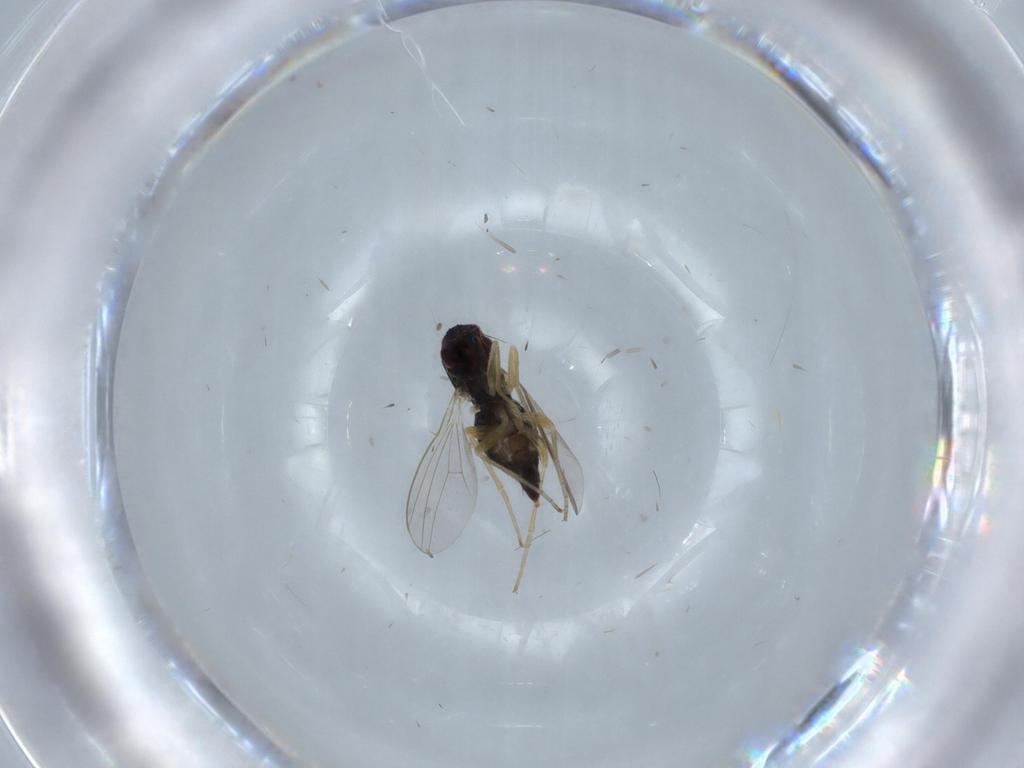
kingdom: Animalia
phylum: Arthropoda
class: Insecta
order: Diptera
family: Dolichopodidae
